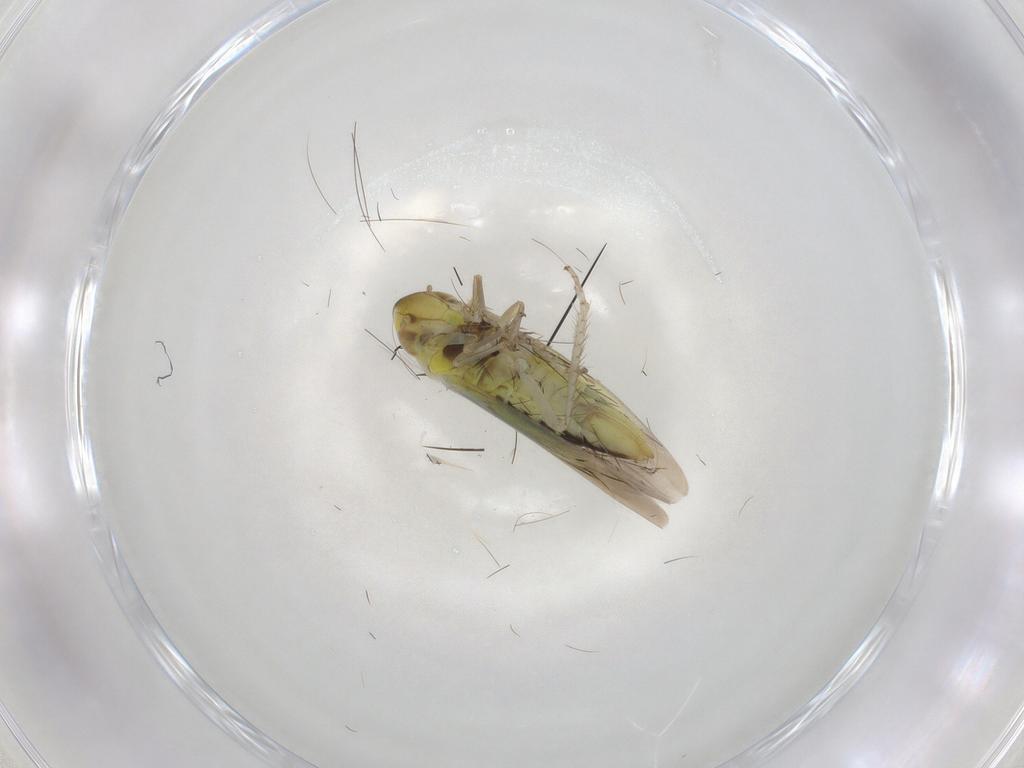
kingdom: Animalia
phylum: Arthropoda
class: Insecta
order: Hemiptera
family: Cicadellidae
